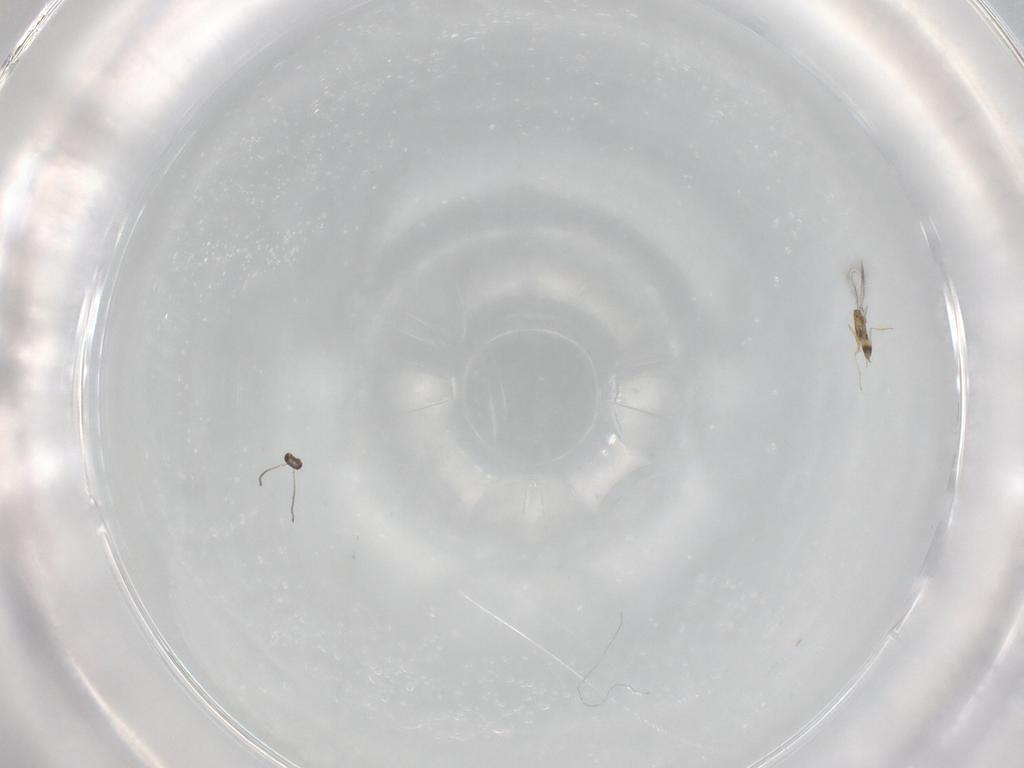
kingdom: Animalia
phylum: Arthropoda
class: Insecta
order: Hymenoptera
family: Mymaridae
